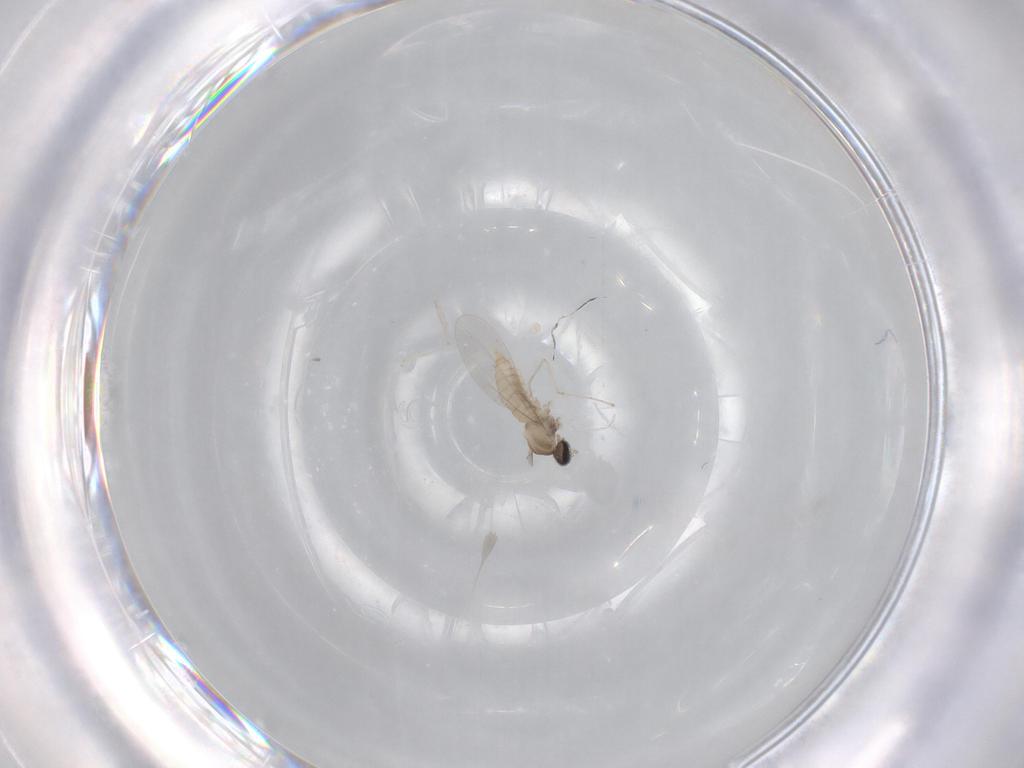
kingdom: Animalia
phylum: Arthropoda
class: Insecta
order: Diptera
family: Cecidomyiidae
